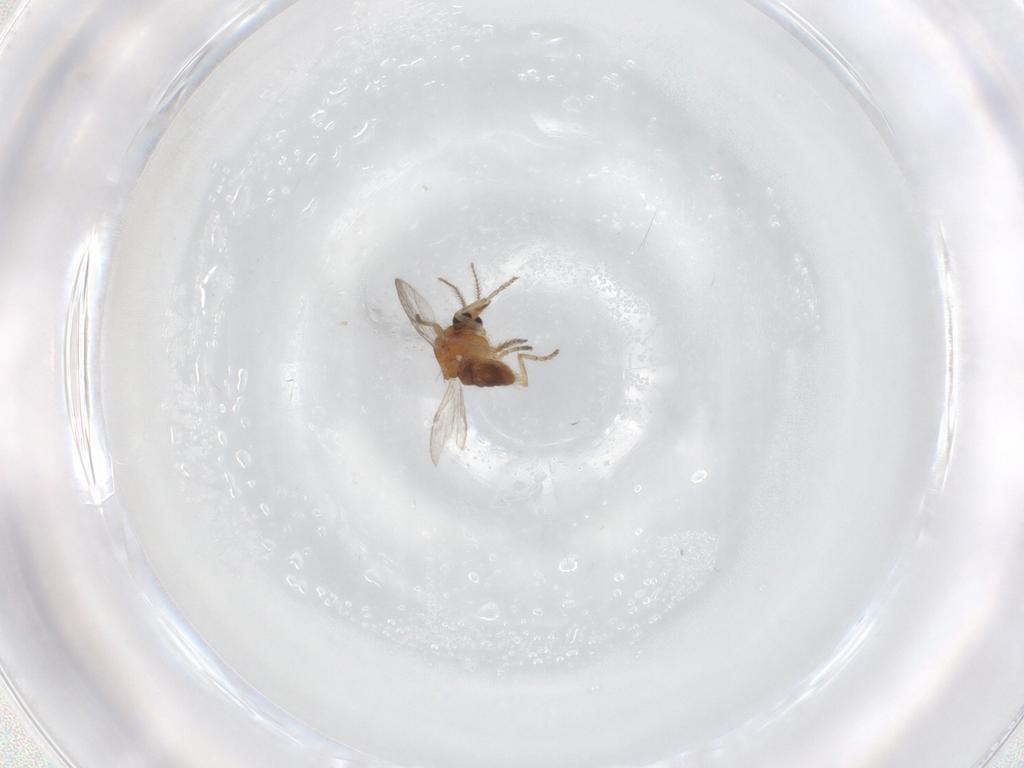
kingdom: Animalia
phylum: Arthropoda
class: Insecta
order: Diptera
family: Ceratopogonidae
